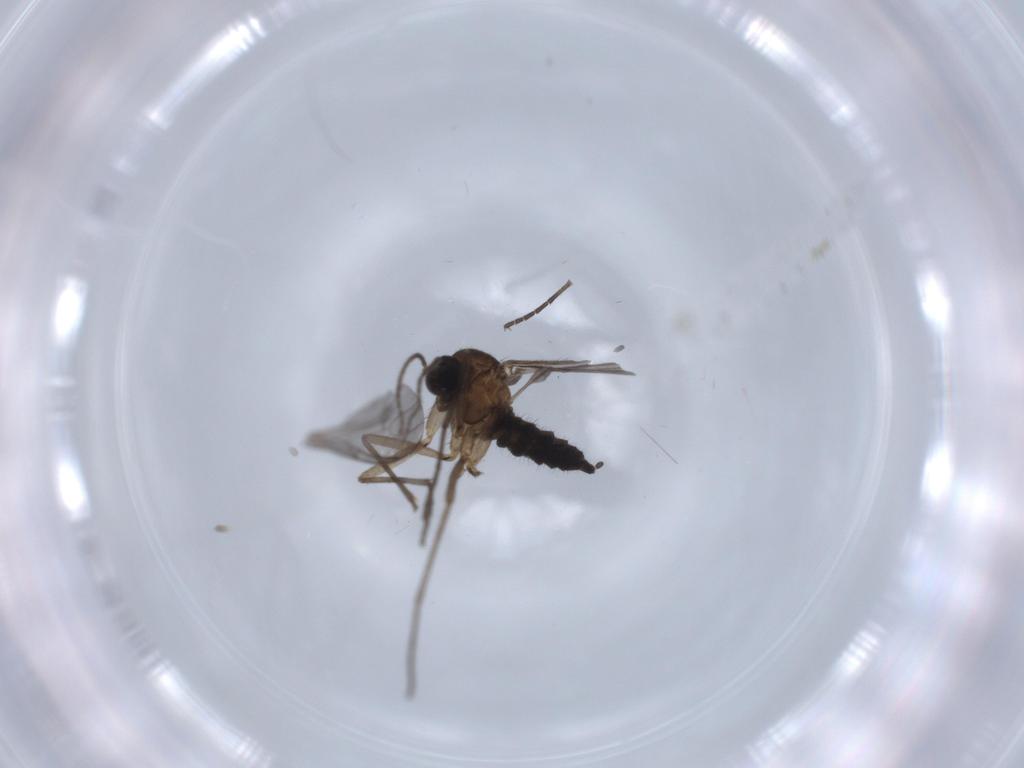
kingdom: Animalia
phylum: Arthropoda
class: Insecta
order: Diptera
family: Sciaridae
